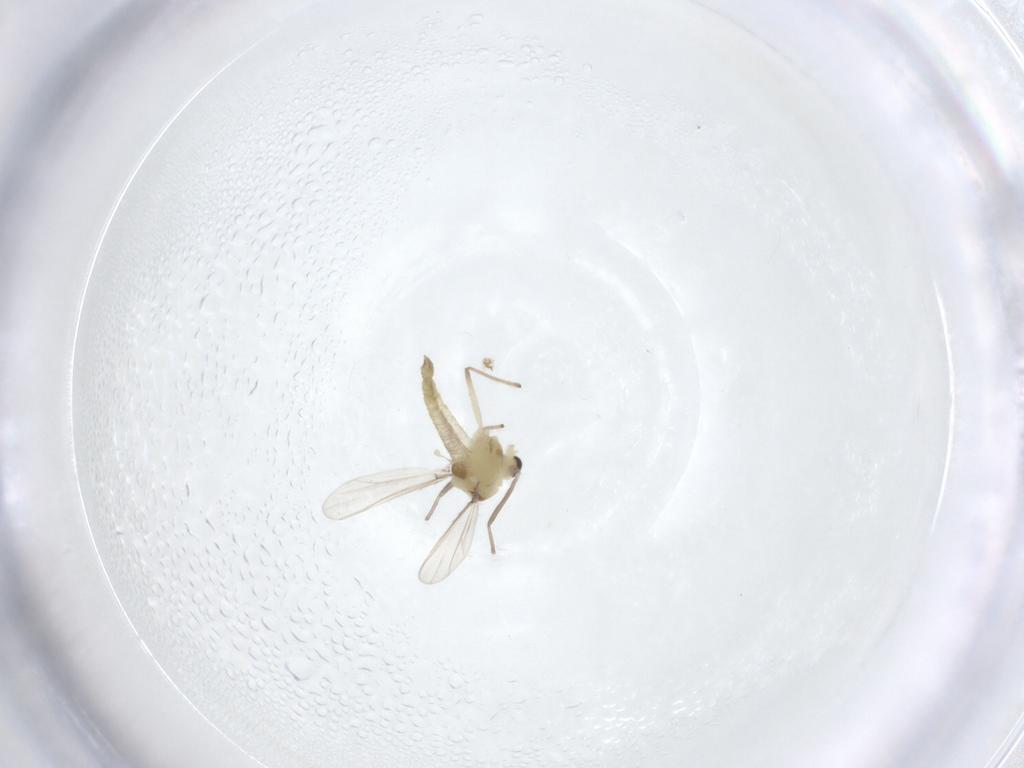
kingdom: Animalia
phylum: Arthropoda
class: Insecta
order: Diptera
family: Chironomidae
